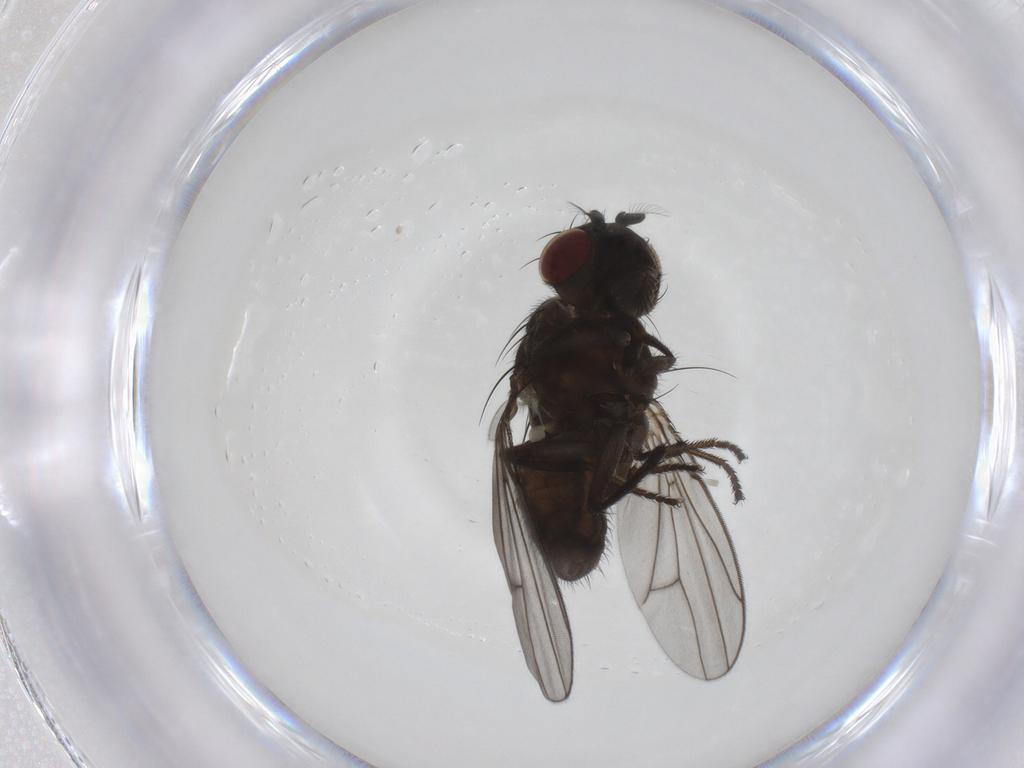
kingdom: Animalia
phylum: Arthropoda
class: Insecta
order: Diptera
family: Ephydridae
